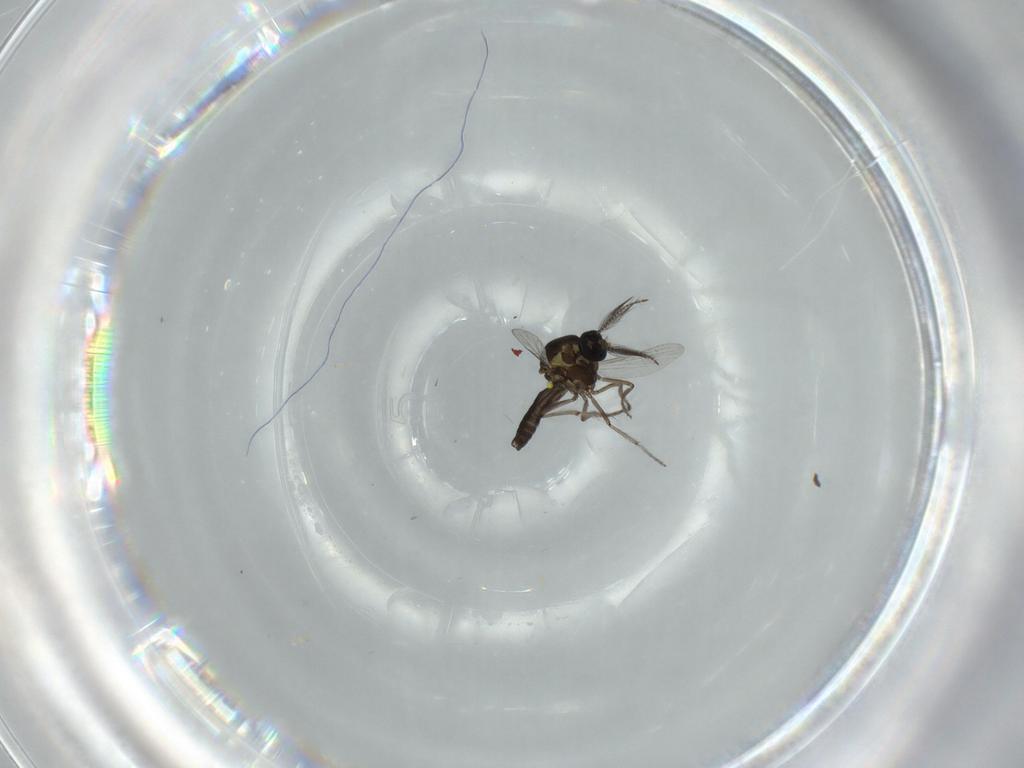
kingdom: Animalia
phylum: Arthropoda
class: Insecta
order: Diptera
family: Ceratopogonidae
